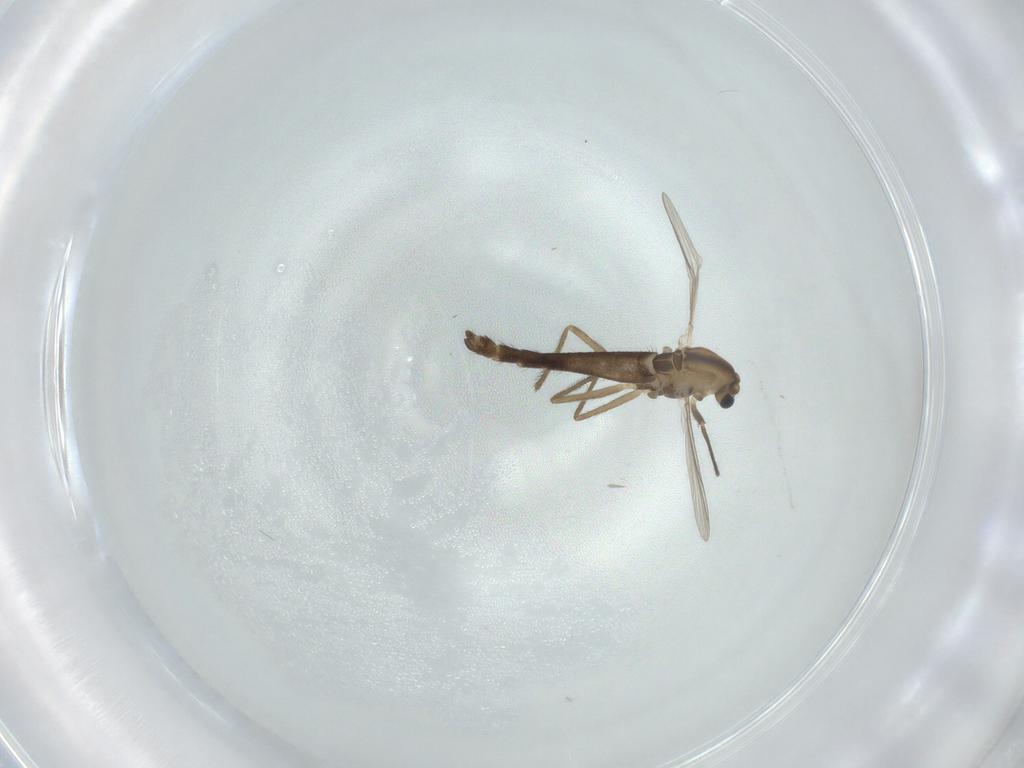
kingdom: Animalia
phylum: Arthropoda
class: Insecta
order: Diptera
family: Chironomidae
